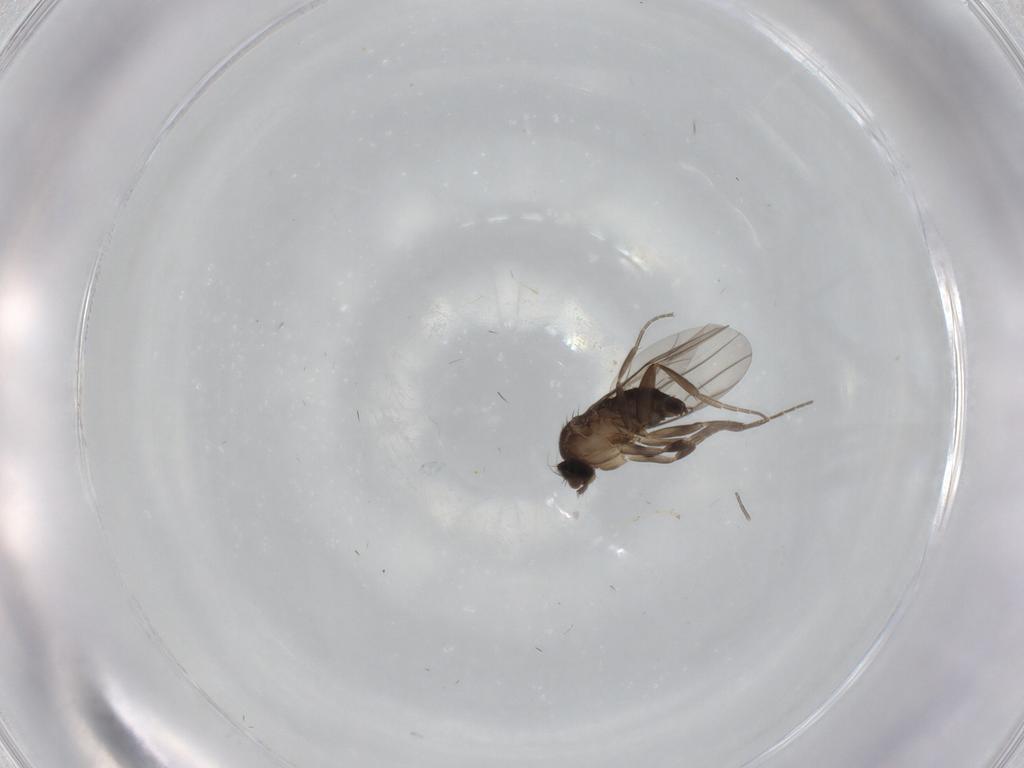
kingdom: Animalia
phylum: Arthropoda
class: Insecta
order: Diptera
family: Phoridae
